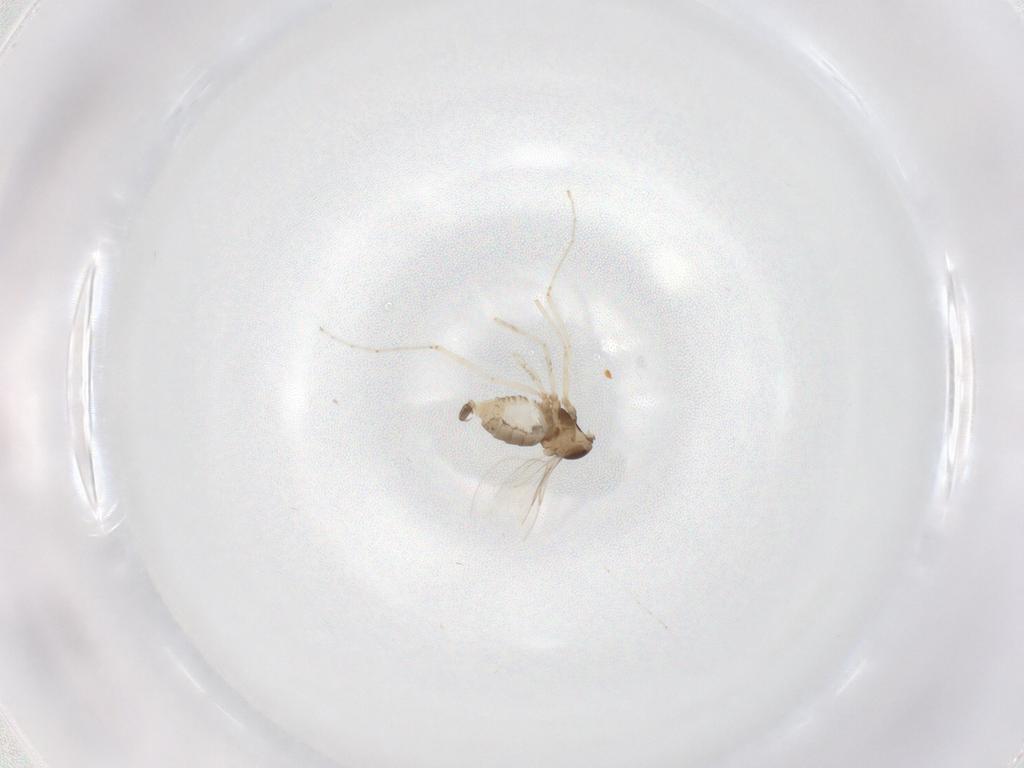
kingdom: Animalia
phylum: Arthropoda
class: Insecta
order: Diptera
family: Cecidomyiidae
